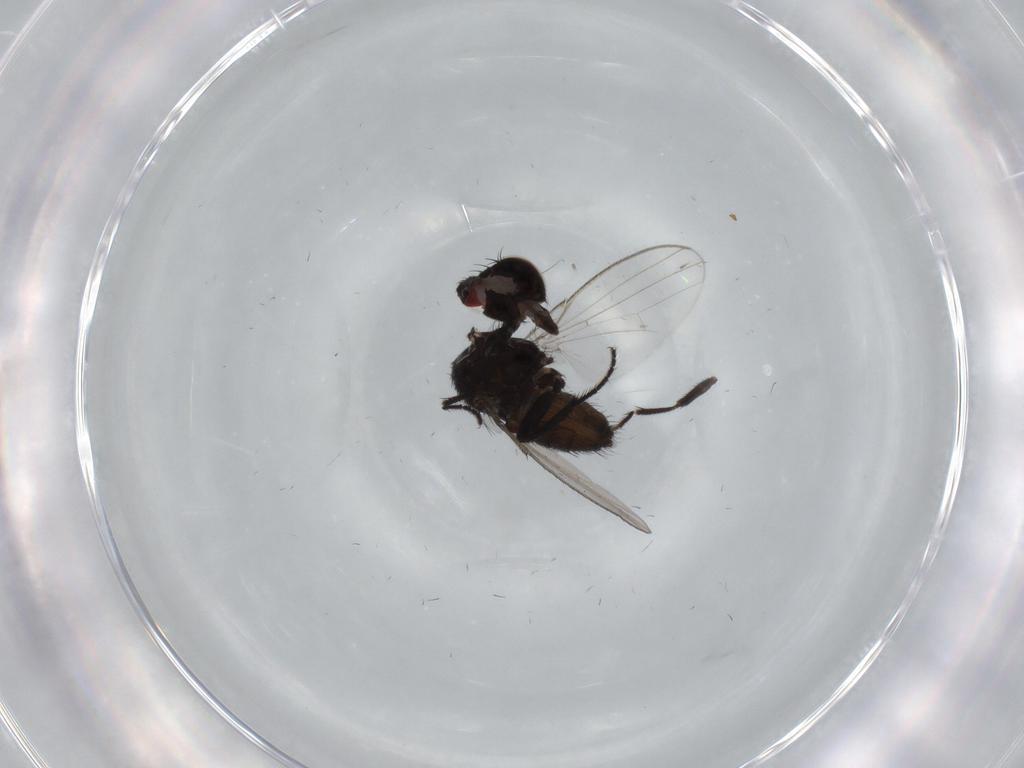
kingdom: Animalia
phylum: Arthropoda
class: Insecta
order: Diptera
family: Milichiidae
